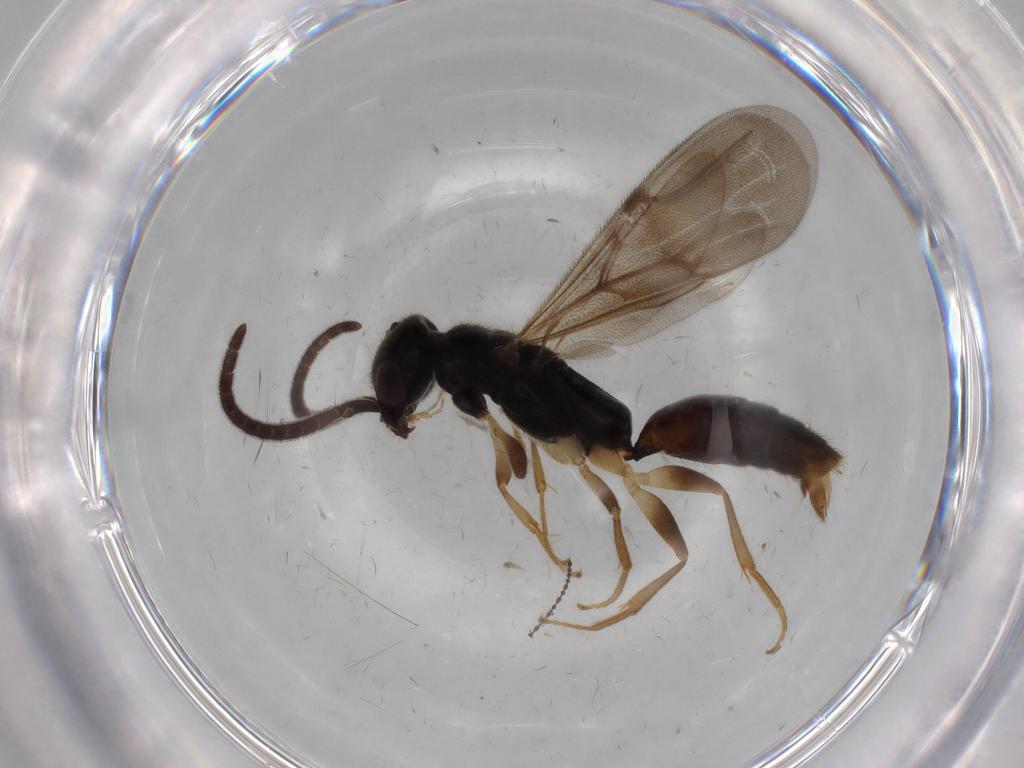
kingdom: Animalia
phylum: Arthropoda
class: Insecta
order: Hymenoptera
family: Bethylidae
